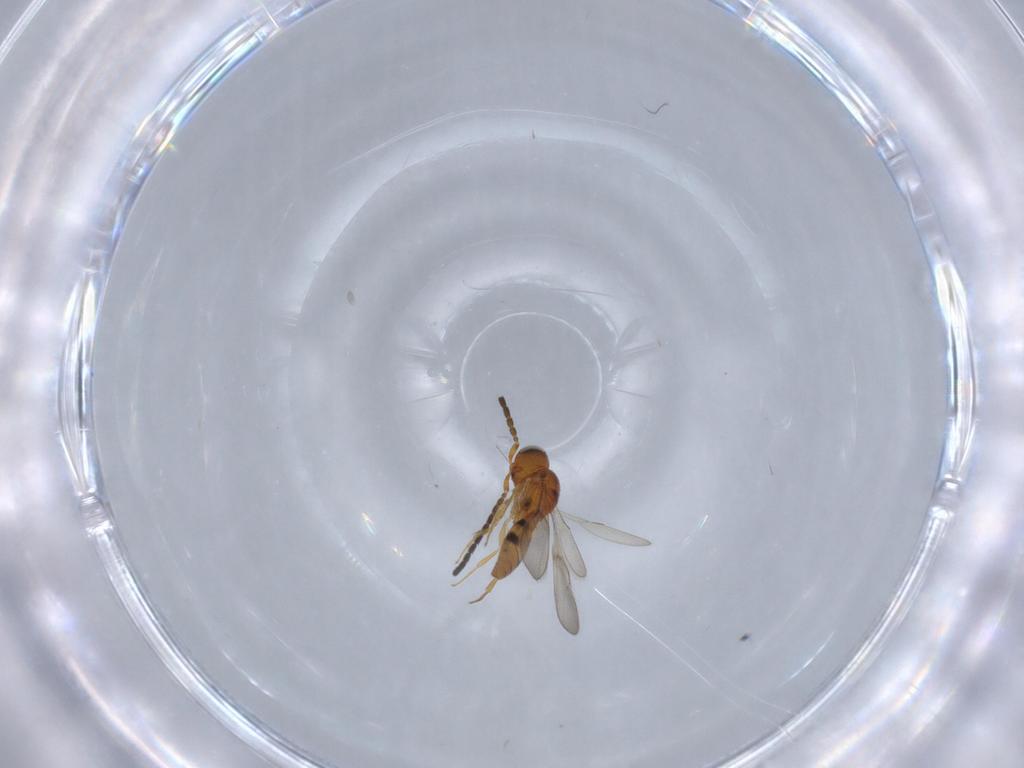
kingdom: Animalia
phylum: Arthropoda
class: Insecta
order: Hymenoptera
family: Scelionidae
